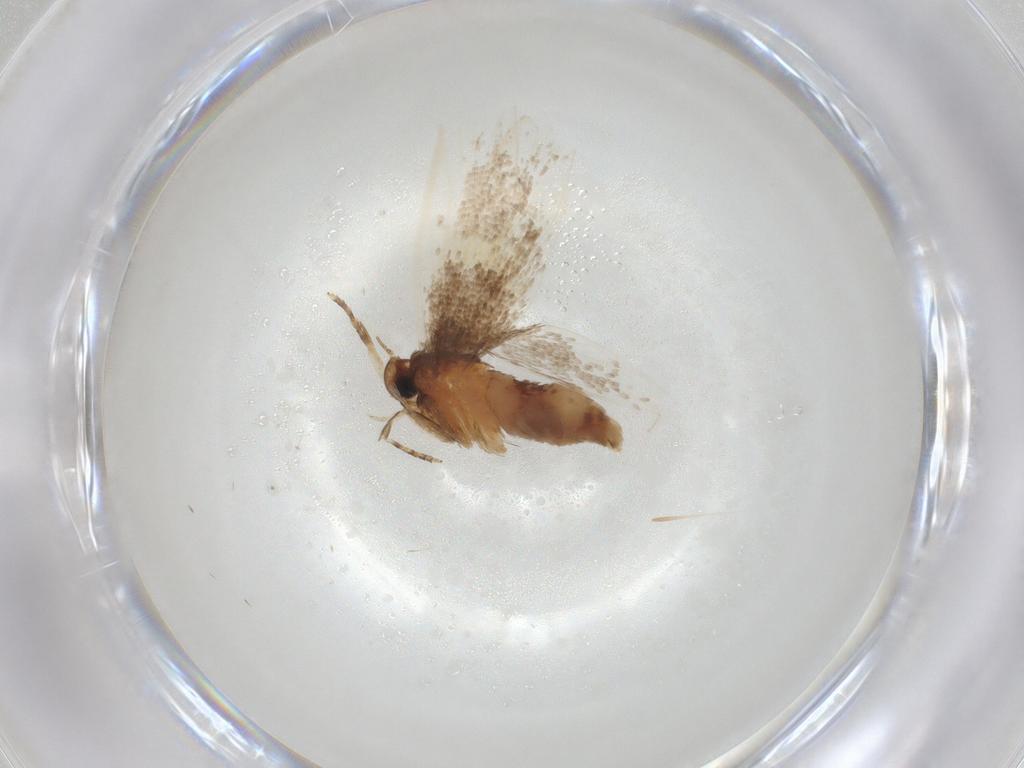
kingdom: Animalia
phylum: Arthropoda
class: Insecta
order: Lepidoptera
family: Oecophoridae
